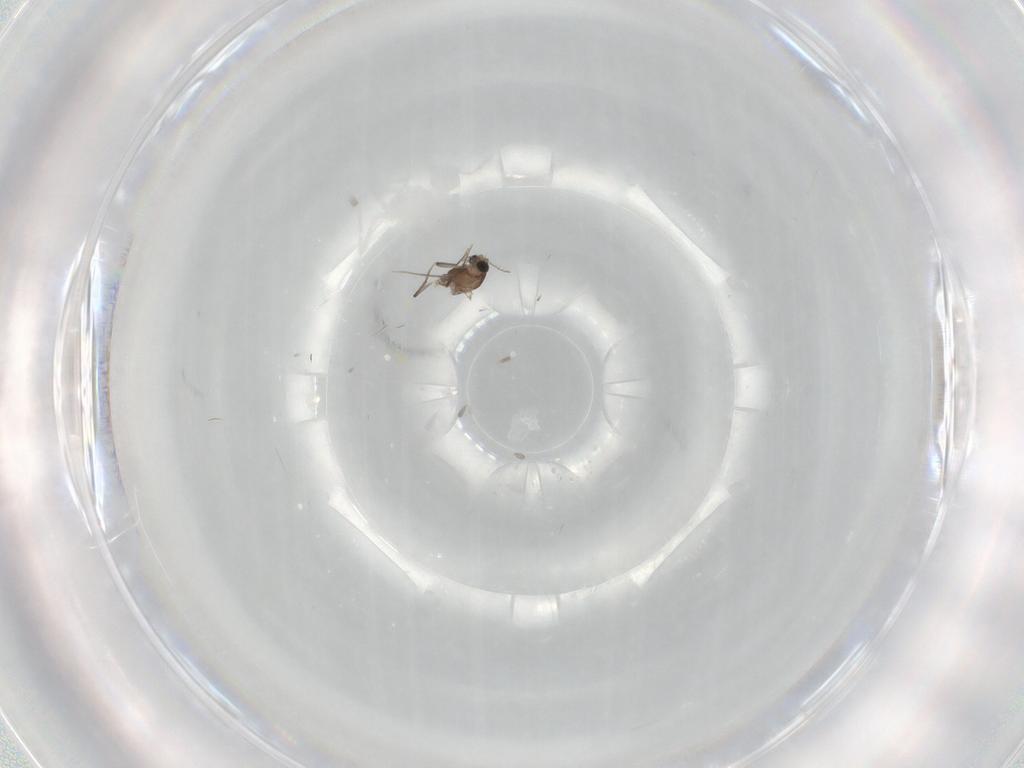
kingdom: Animalia
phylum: Arthropoda
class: Insecta
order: Diptera
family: Chironomidae
